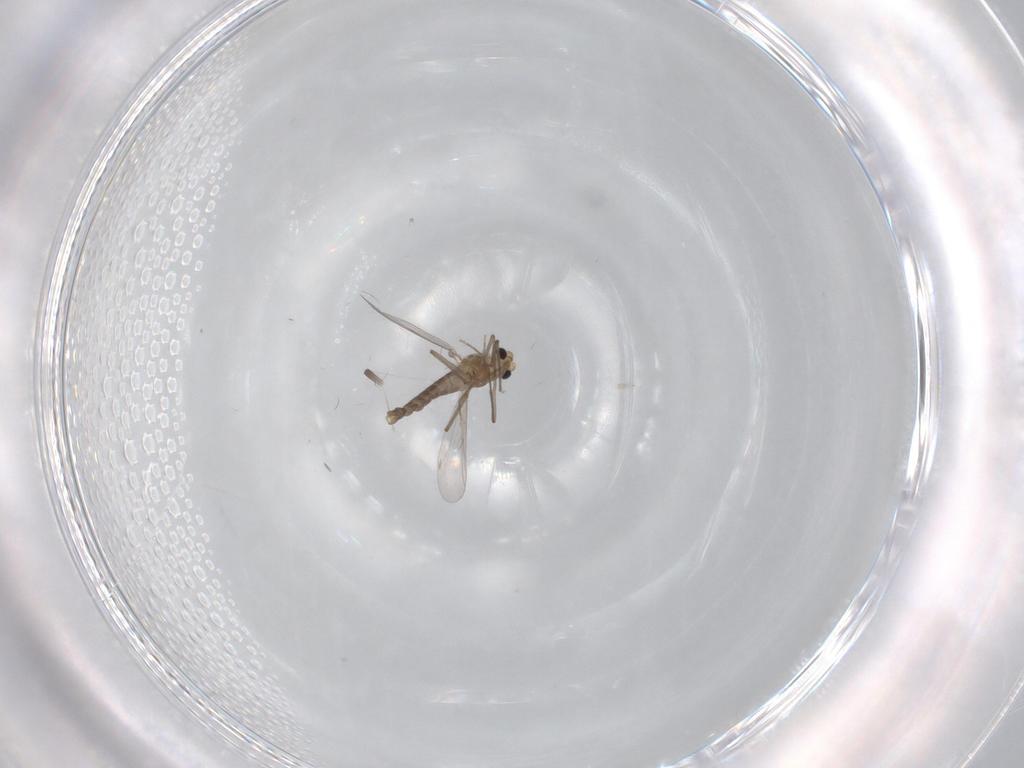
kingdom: Animalia
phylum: Arthropoda
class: Insecta
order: Diptera
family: Chironomidae
